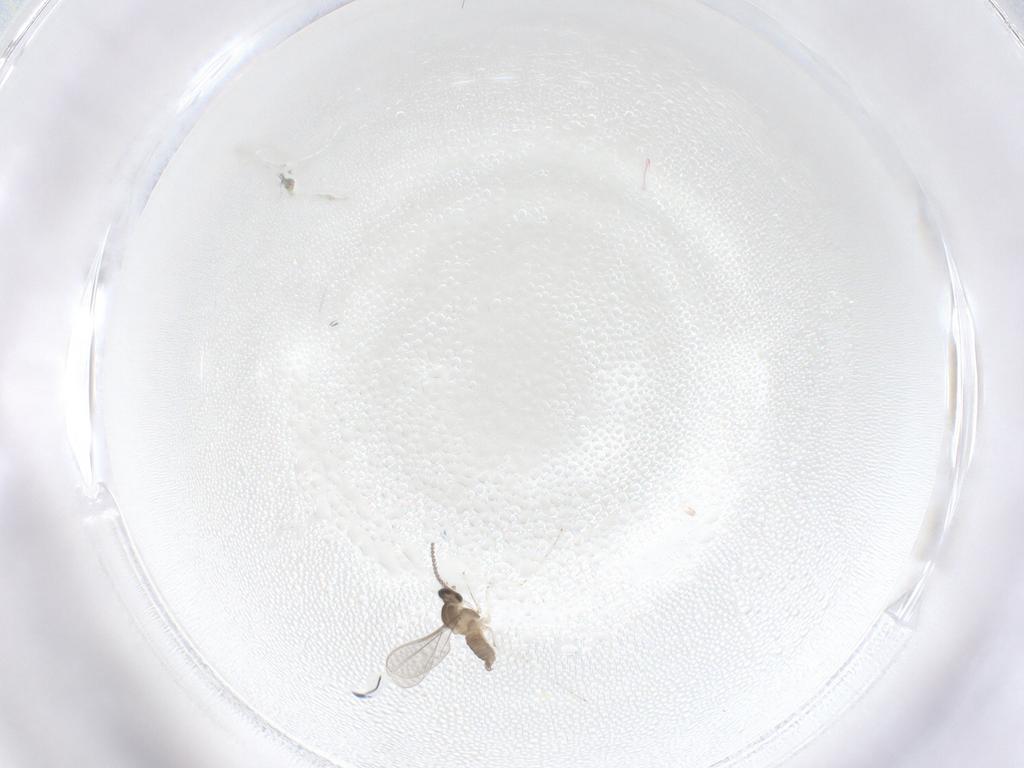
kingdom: Animalia
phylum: Arthropoda
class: Insecta
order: Diptera
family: Cecidomyiidae
